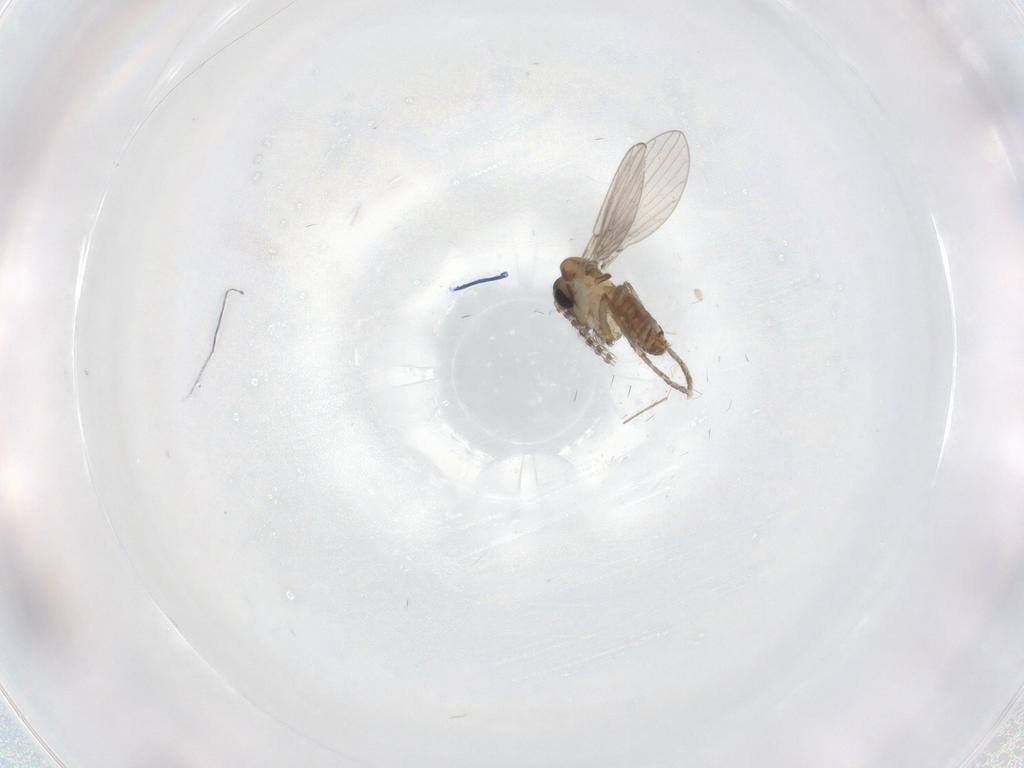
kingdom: Animalia
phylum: Arthropoda
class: Insecta
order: Diptera
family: Chironomidae
